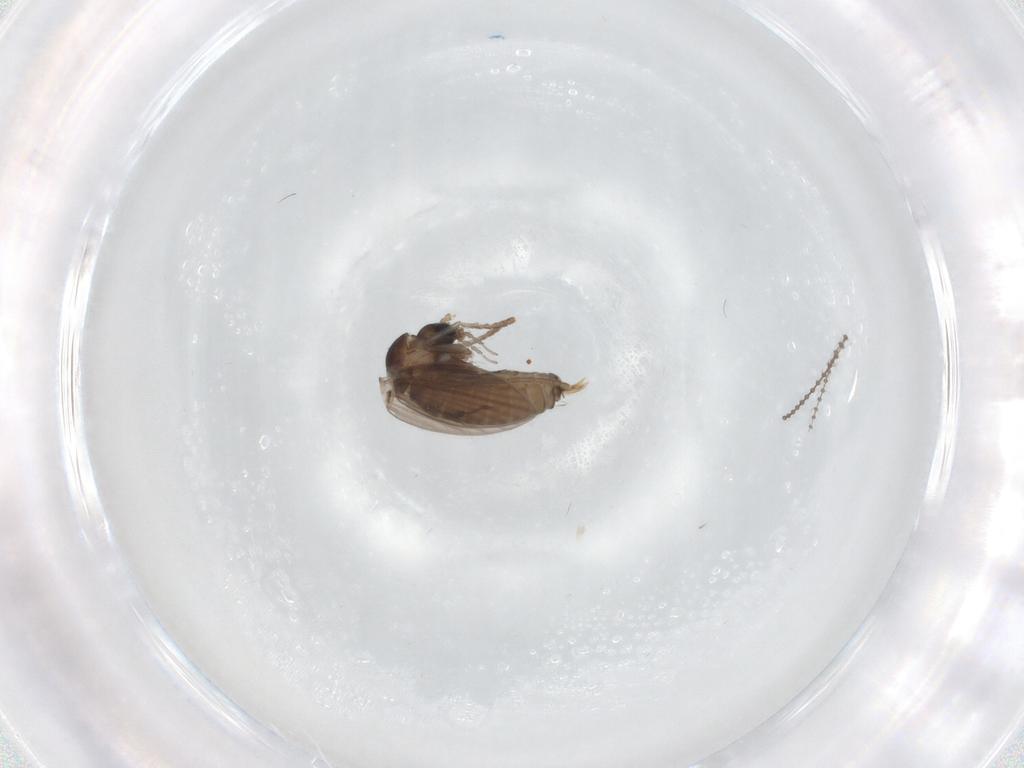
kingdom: Animalia
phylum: Arthropoda
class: Insecta
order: Diptera
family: Psychodidae
